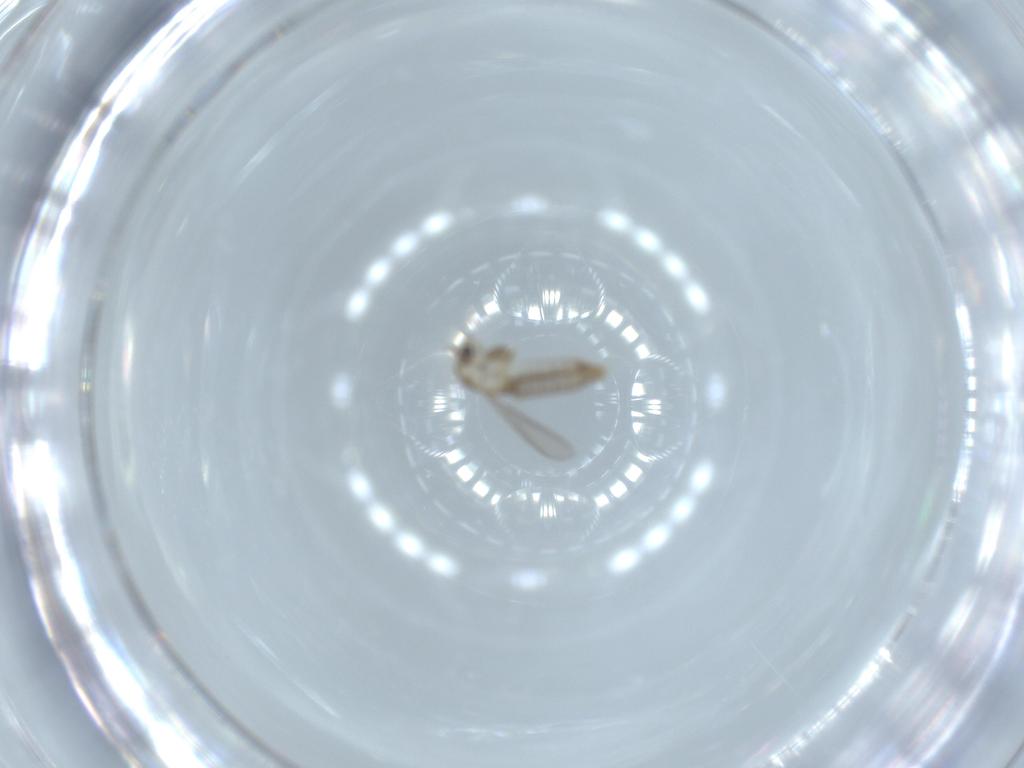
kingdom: Animalia
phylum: Arthropoda
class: Insecta
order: Diptera
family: Chironomidae
